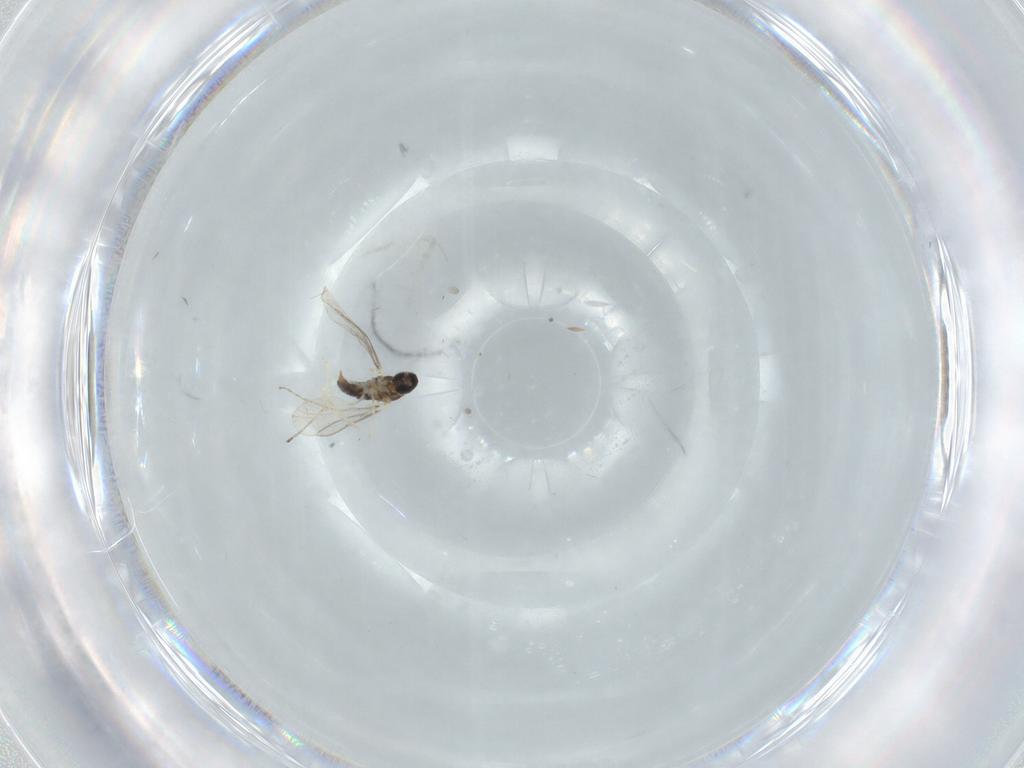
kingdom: Animalia
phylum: Arthropoda
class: Insecta
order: Diptera
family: Cecidomyiidae
